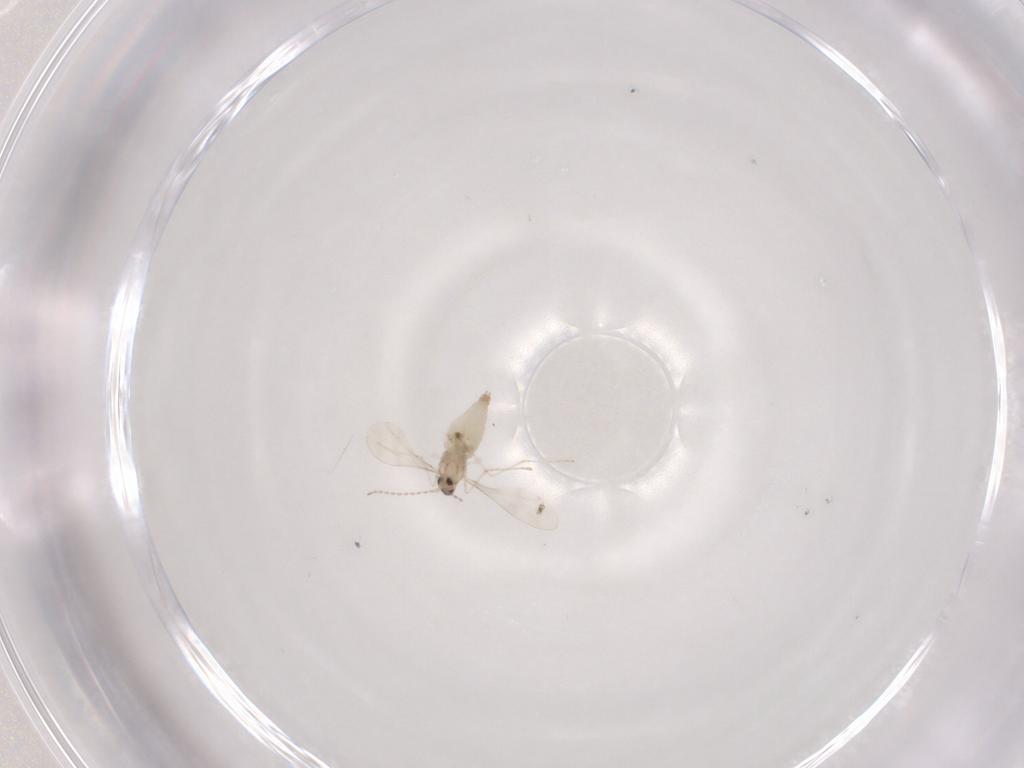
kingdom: Animalia
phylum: Arthropoda
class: Insecta
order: Diptera
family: Cecidomyiidae
